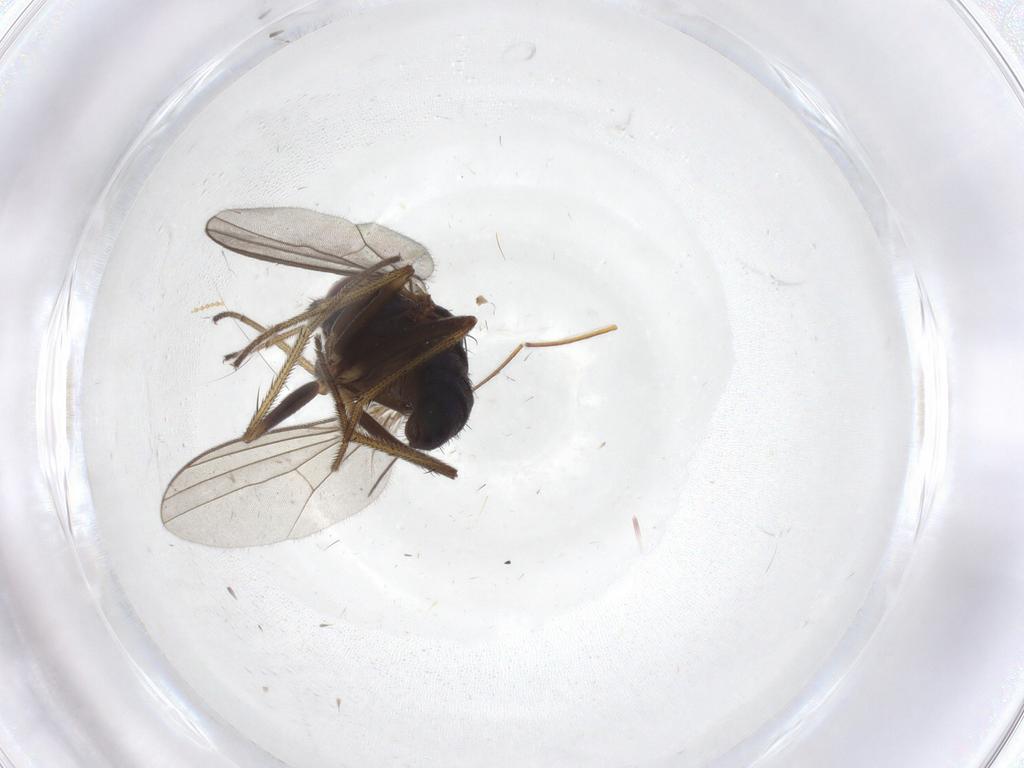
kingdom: Animalia
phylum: Arthropoda
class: Insecta
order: Diptera
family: Dolichopodidae
